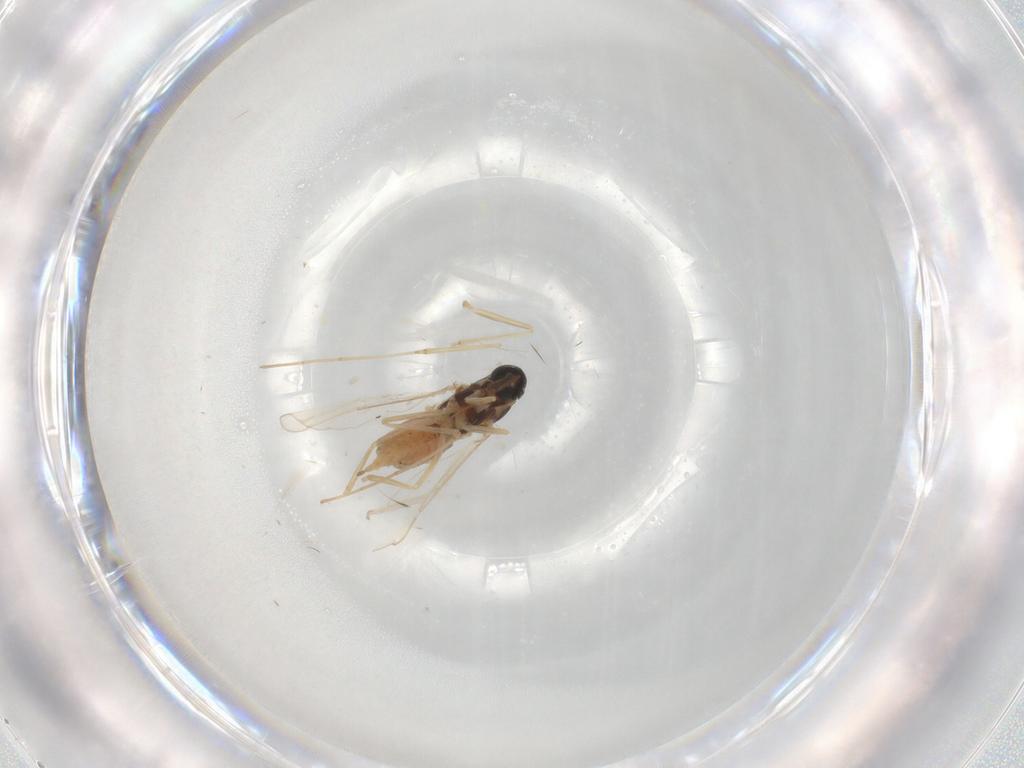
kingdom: Animalia
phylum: Arthropoda
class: Insecta
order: Diptera
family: Cecidomyiidae
